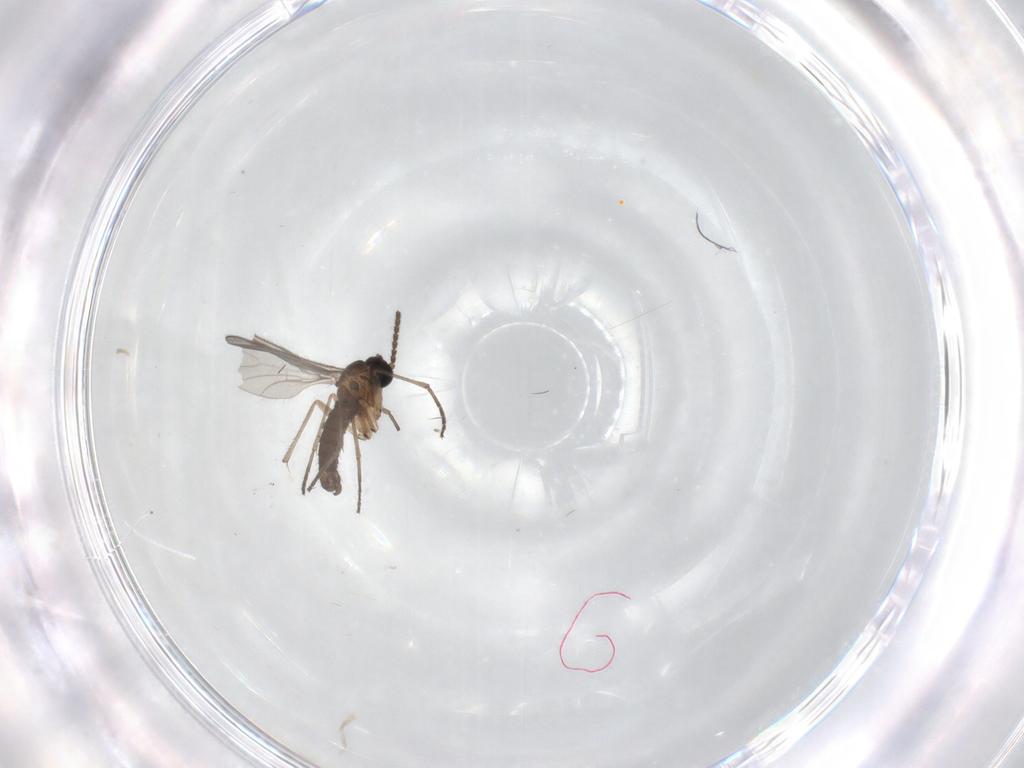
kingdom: Animalia
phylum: Arthropoda
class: Insecta
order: Diptera
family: Sciaridae
